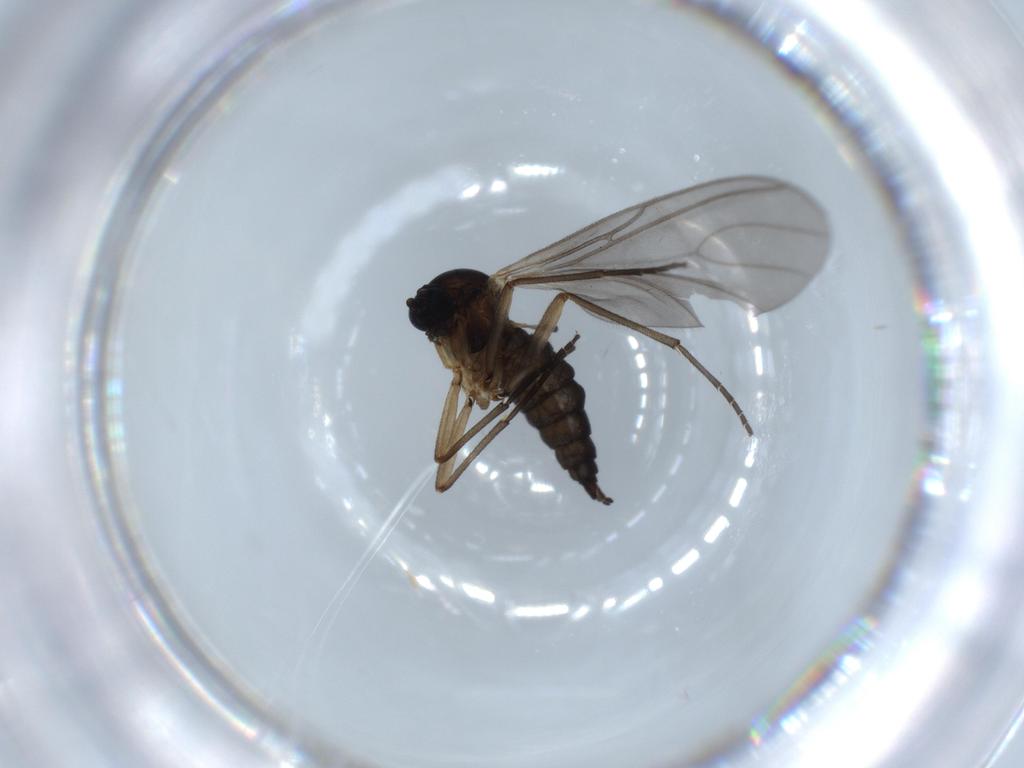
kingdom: Animalia
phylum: Arthropoda
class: Insecta
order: Diptera
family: Sciaridae
